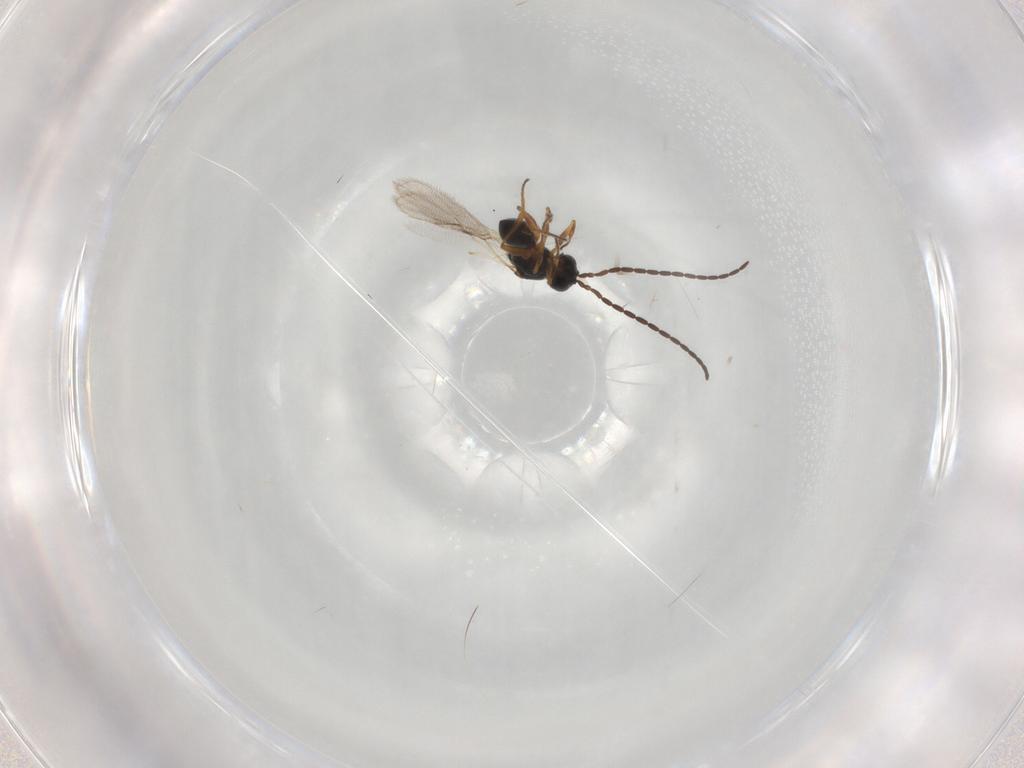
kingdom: Animalia
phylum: Arthropoda
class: Insecta
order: Hymenoptera
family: Figitidae
